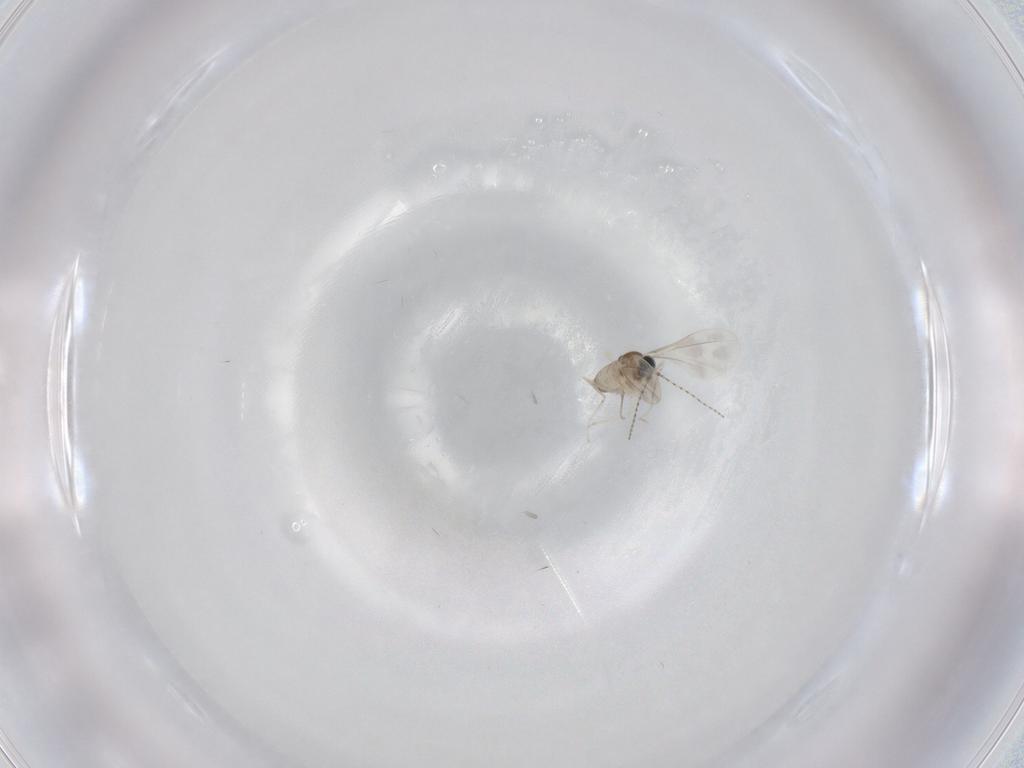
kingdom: Animalia
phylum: Arthropoda
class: Insecta
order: Diptera
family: Cecidomyiidae
